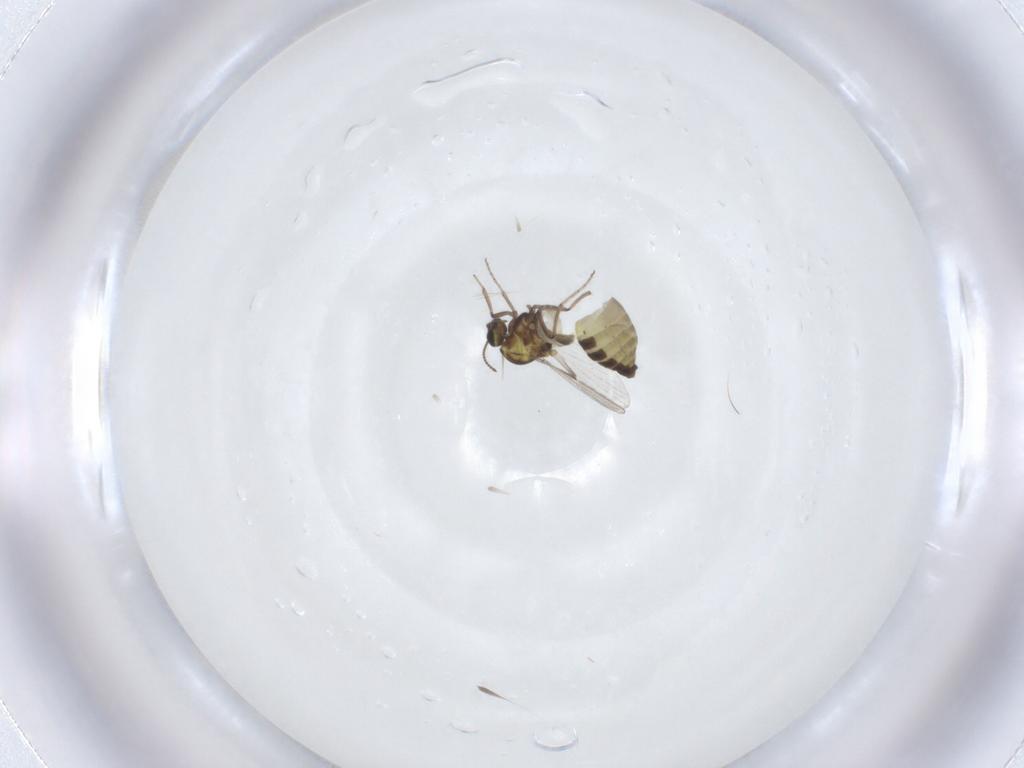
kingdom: Animalia
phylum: Arthropoda
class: Insecta
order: Diptera
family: Ceratopogonidae
